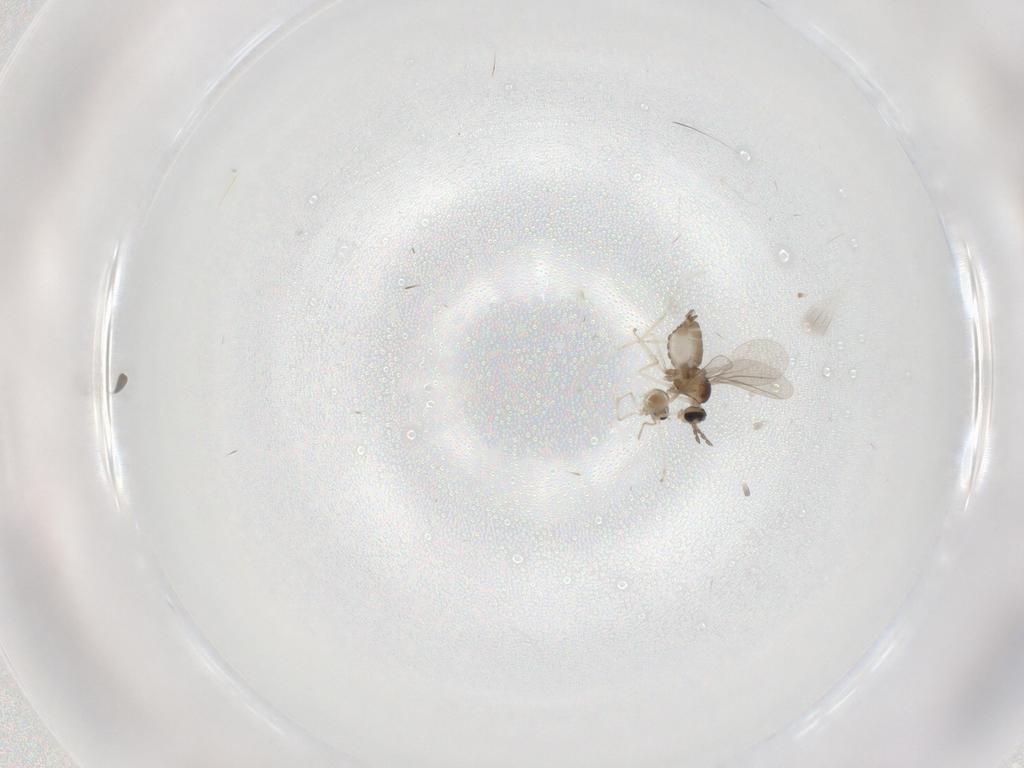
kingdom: Animalia
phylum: Arthropoda
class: Insecta
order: Diptera
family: Cecidomyiidae
